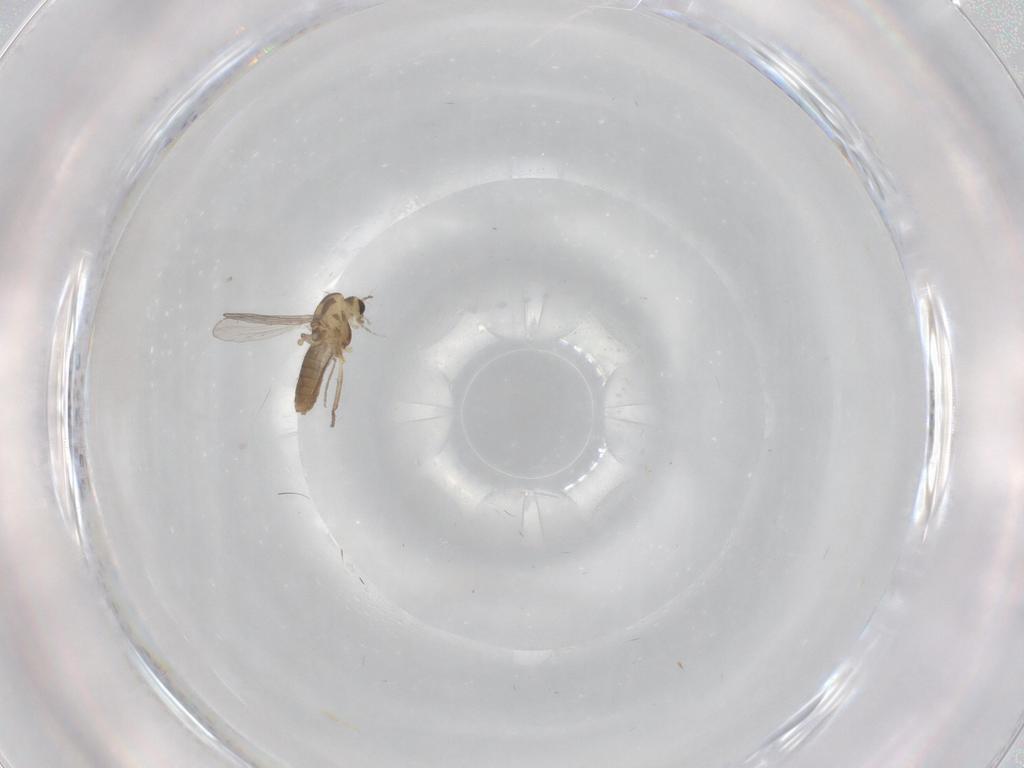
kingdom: Animalia
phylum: Arthropoda
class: Insecta
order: Diptera
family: Chironomidae
